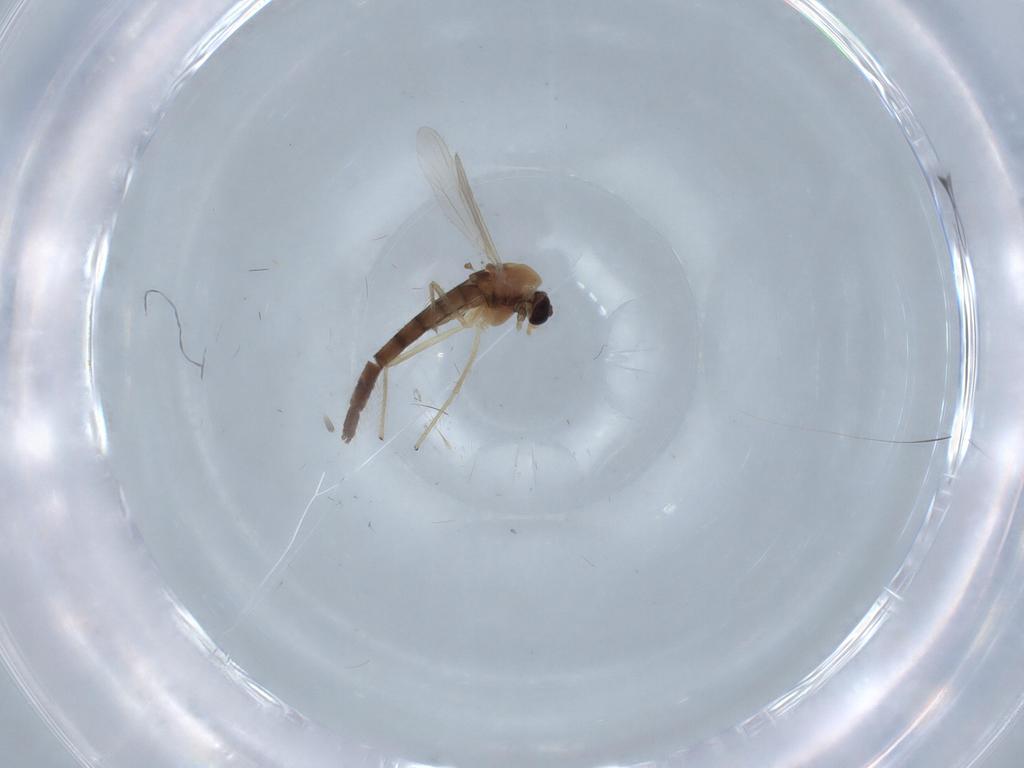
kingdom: Animalia
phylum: Arthropoda
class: Insecta
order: Diptera
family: Chironomidae
